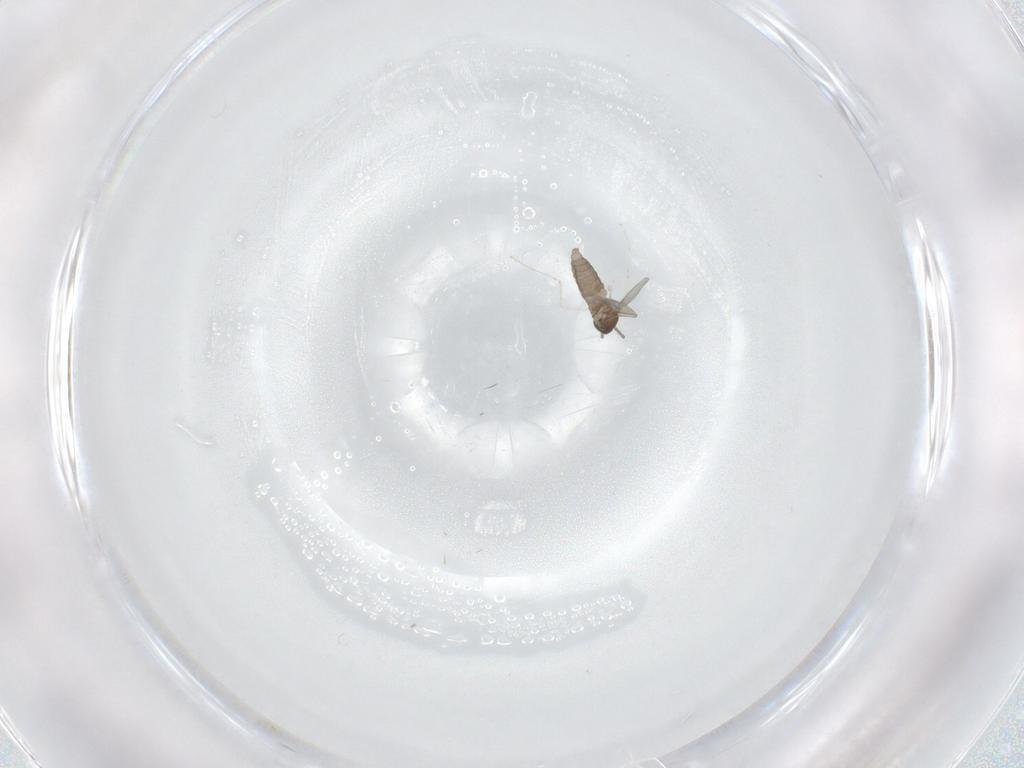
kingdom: Animalia
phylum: Arthropoda
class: Insecta
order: Diptera
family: Cecidomyiidae
